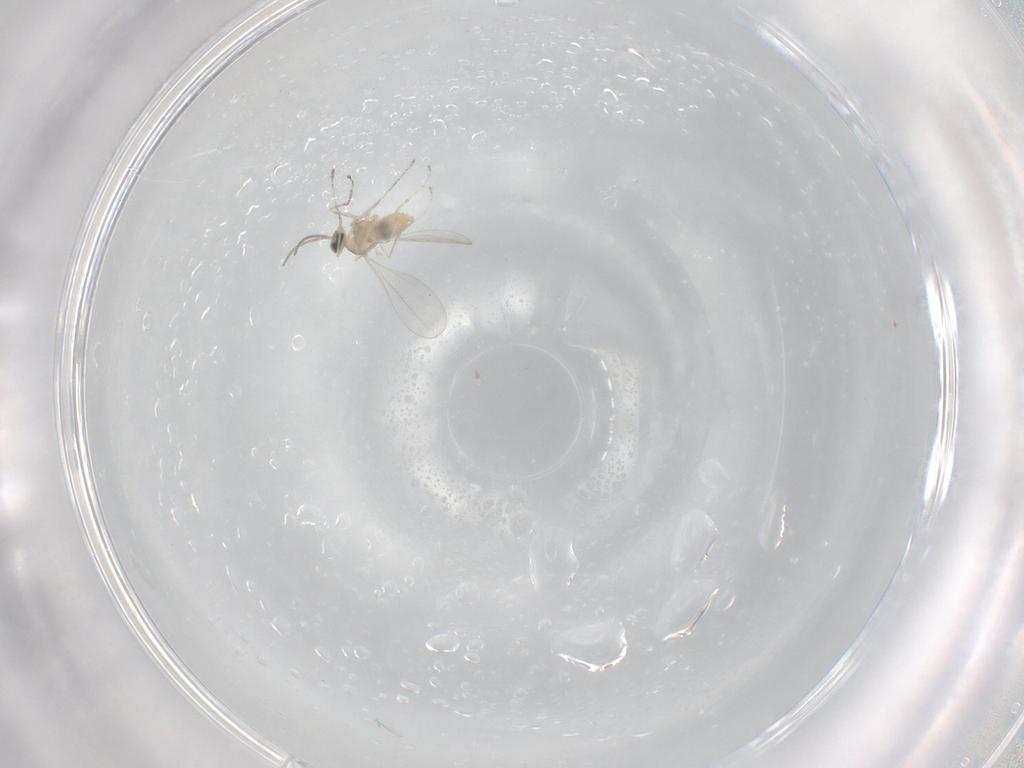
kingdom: Animalia
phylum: Arthropoda
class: Insecta
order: Diptera
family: Cecidomyiidae
